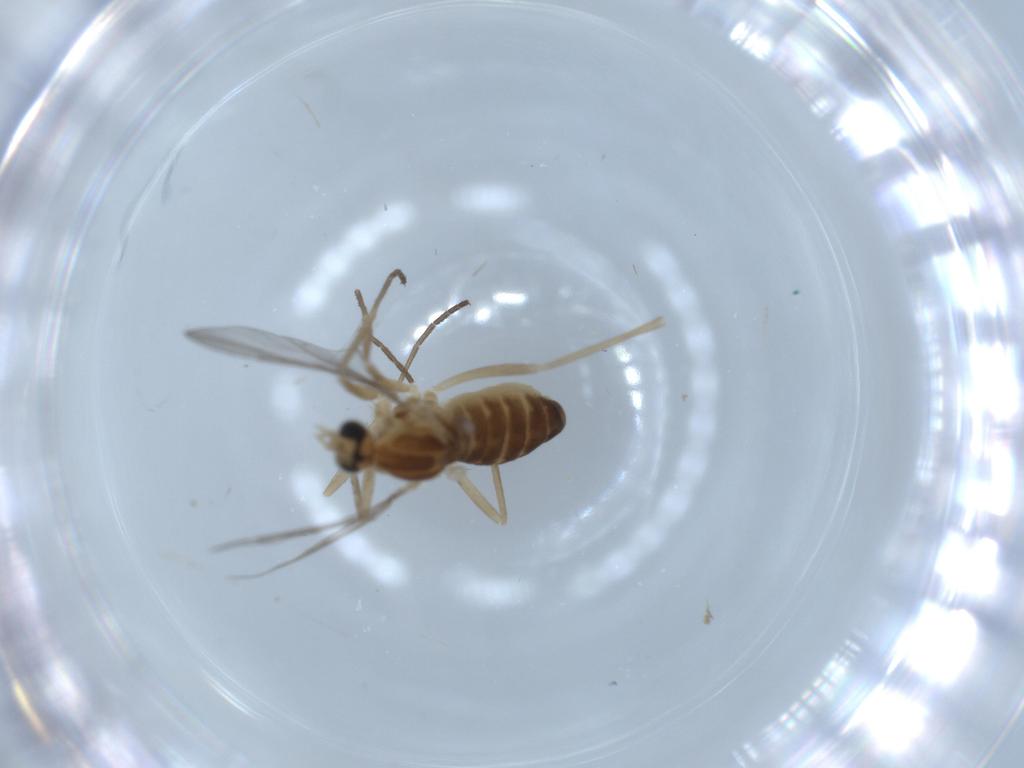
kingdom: Animalia
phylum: Arthropoda
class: Insecta
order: Diptera
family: Cecidomyiidae
